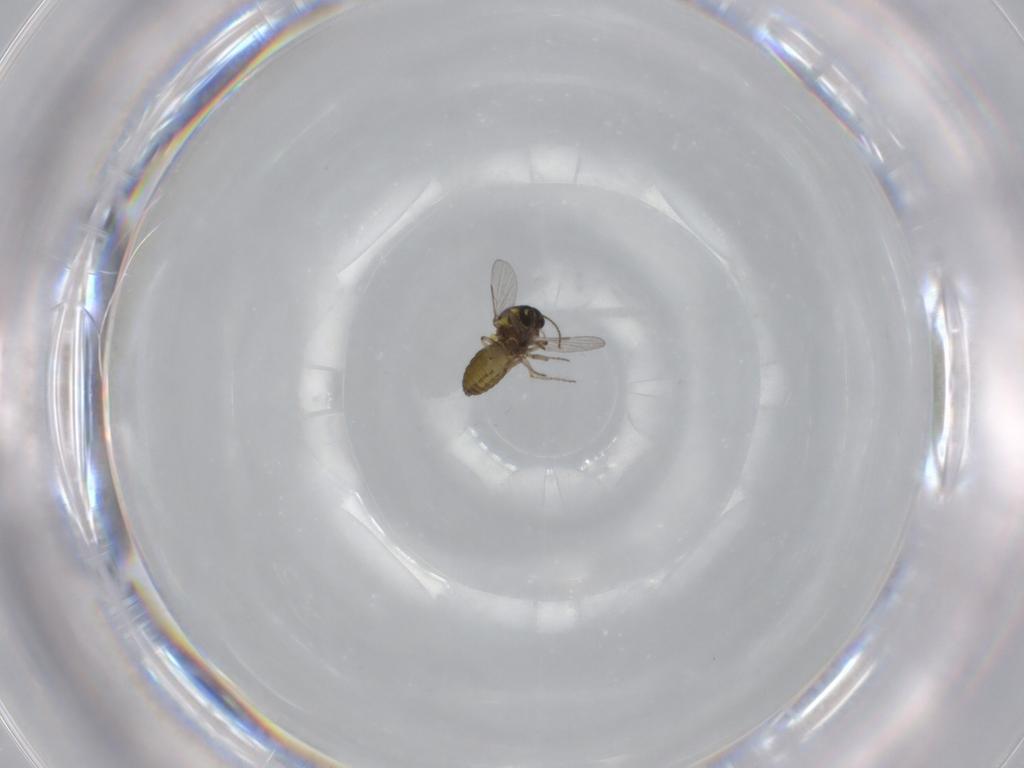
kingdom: Animalia
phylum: Arthropoda
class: Insecta
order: Diptera
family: Ceratopogonidae
